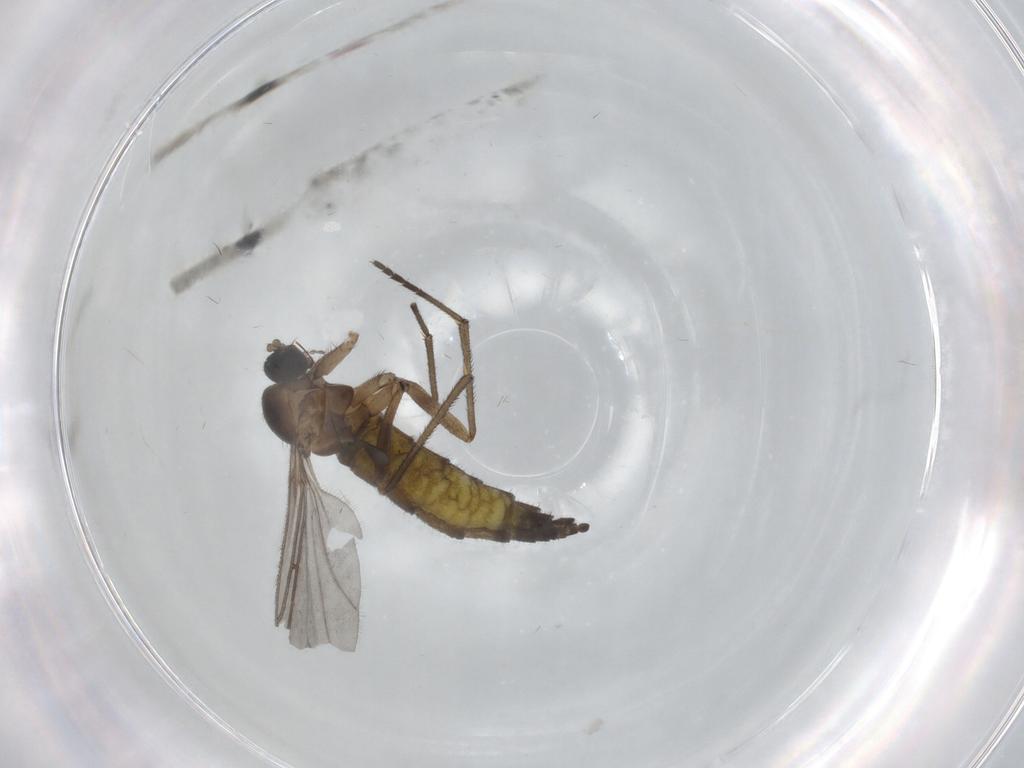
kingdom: Animalia
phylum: Arthropoda
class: Insecta
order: Diptera
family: Sciaridae
